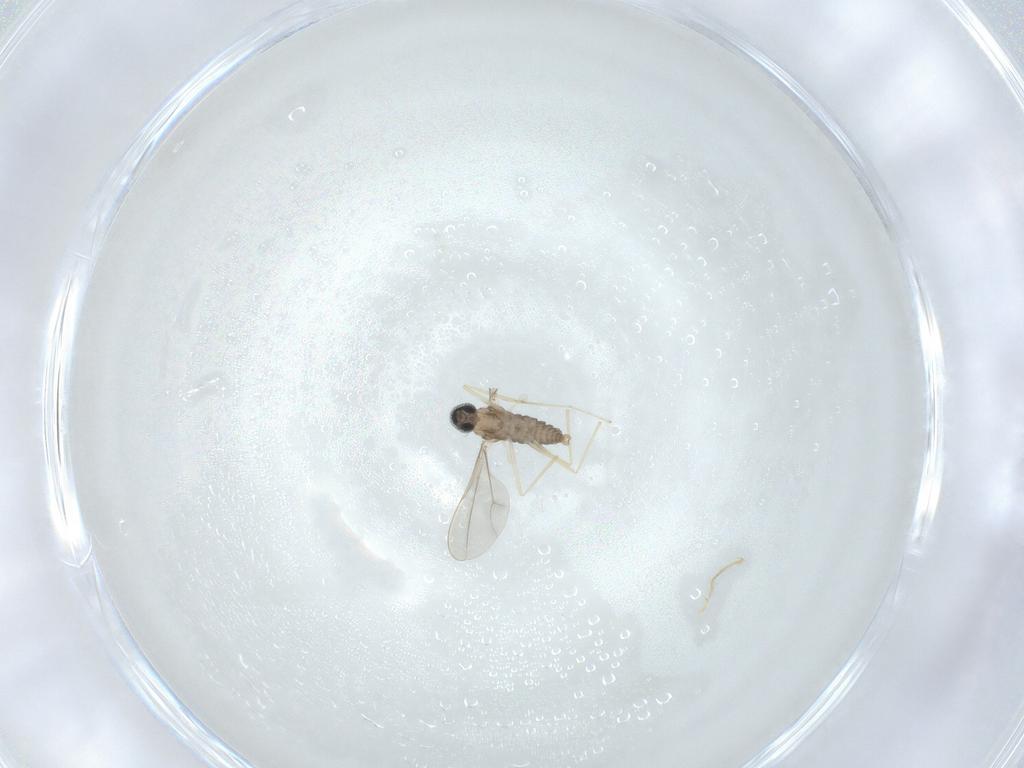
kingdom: Animalia
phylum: Arthropoda
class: Insecta
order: Diptera
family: Cecidomyiidae
